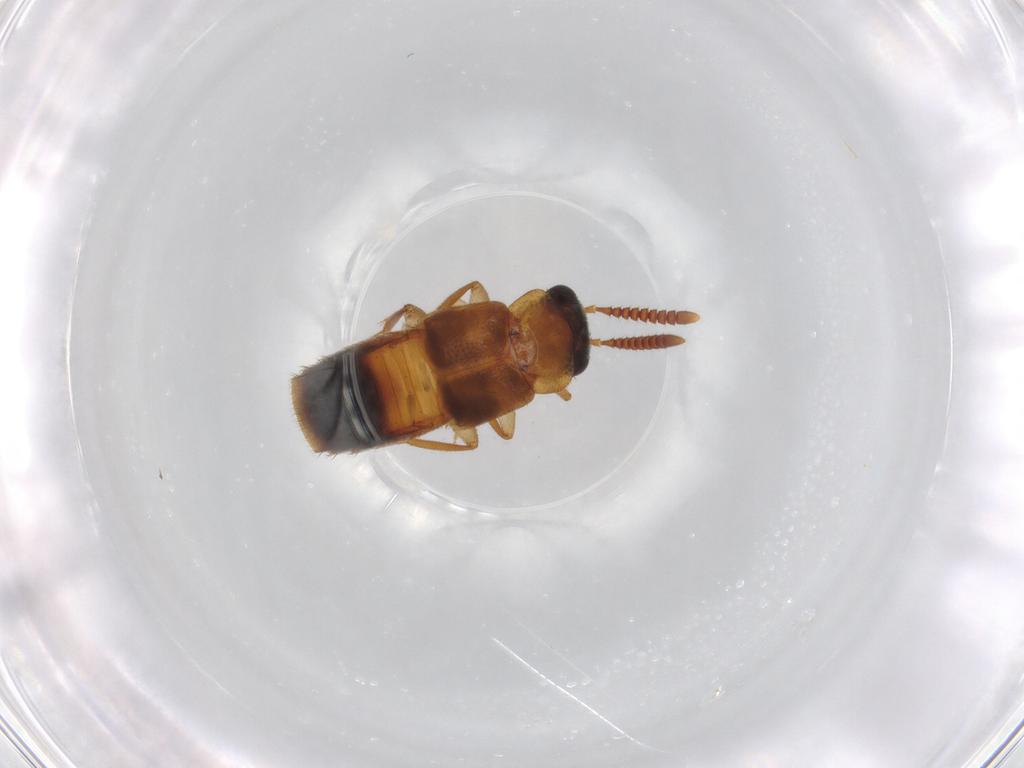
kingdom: Animalia
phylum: Arthropoda
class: Insecta
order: Coleoptera
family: Staphylinidae
